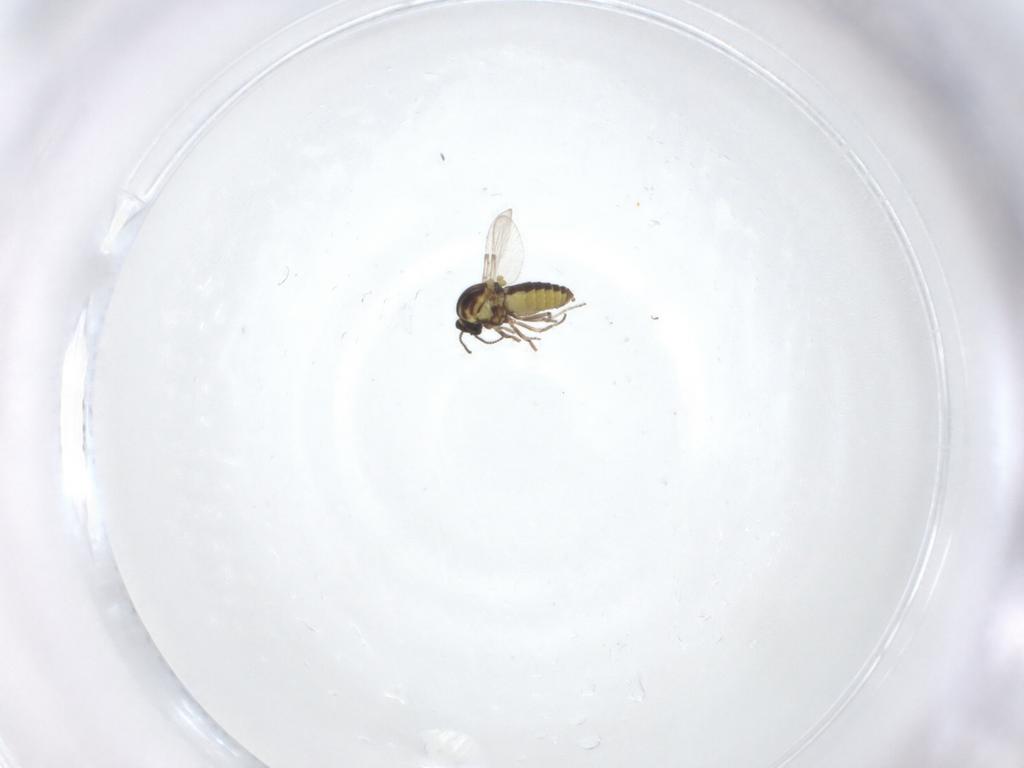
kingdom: Animalia
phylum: Arthropoda
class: Insecta
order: Diptera
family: Ceratopogonidae
